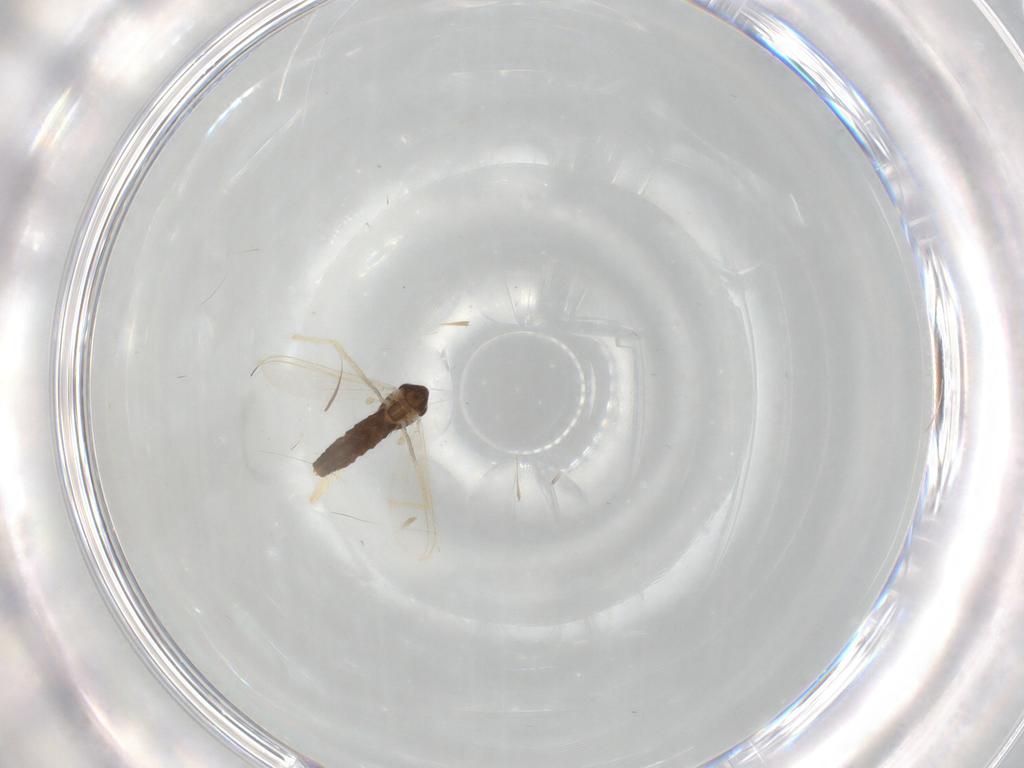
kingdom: Animalia
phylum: Arthropoda
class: Insecta
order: Diptera
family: Chironomidae
